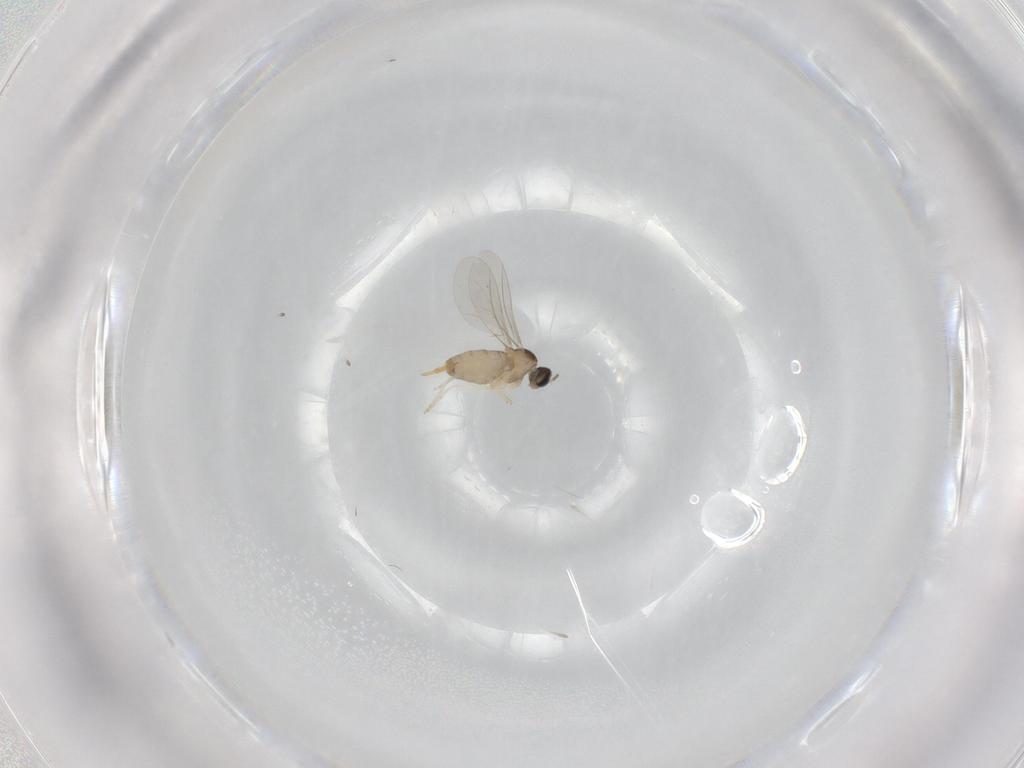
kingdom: Animalia
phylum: Arthropoda
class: Insecta
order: Diptera
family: Cecidomyiidae
